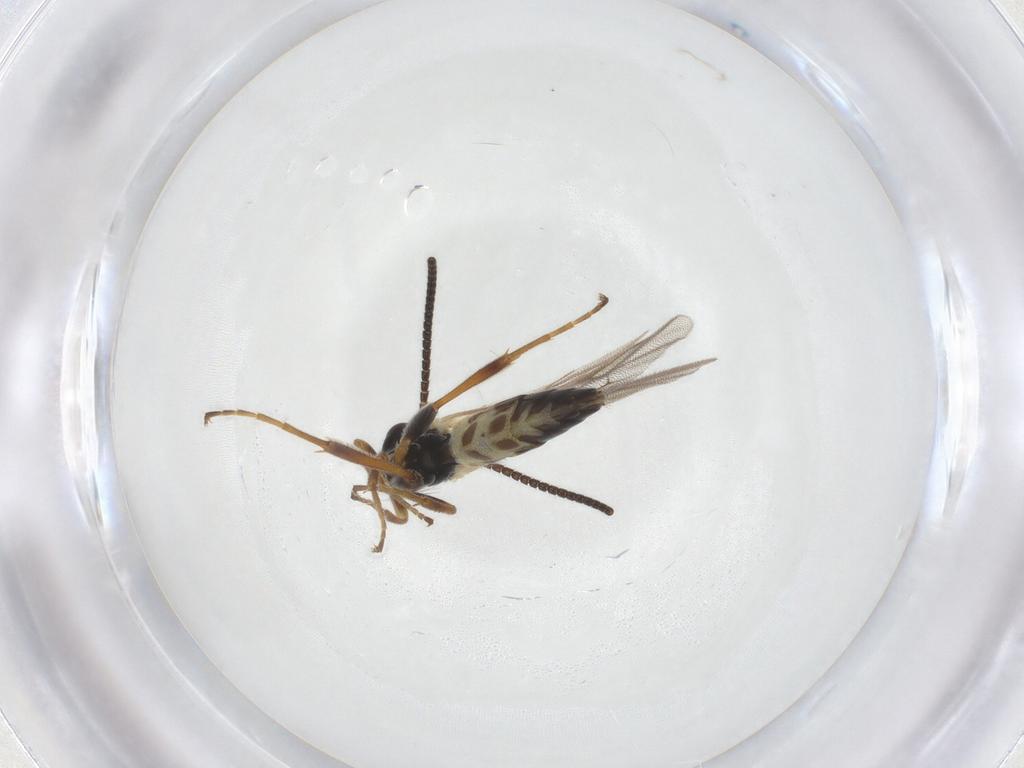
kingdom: Animalia
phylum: Arthropoda
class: Insecta
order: Hymenoptera
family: Ichneumonidae
